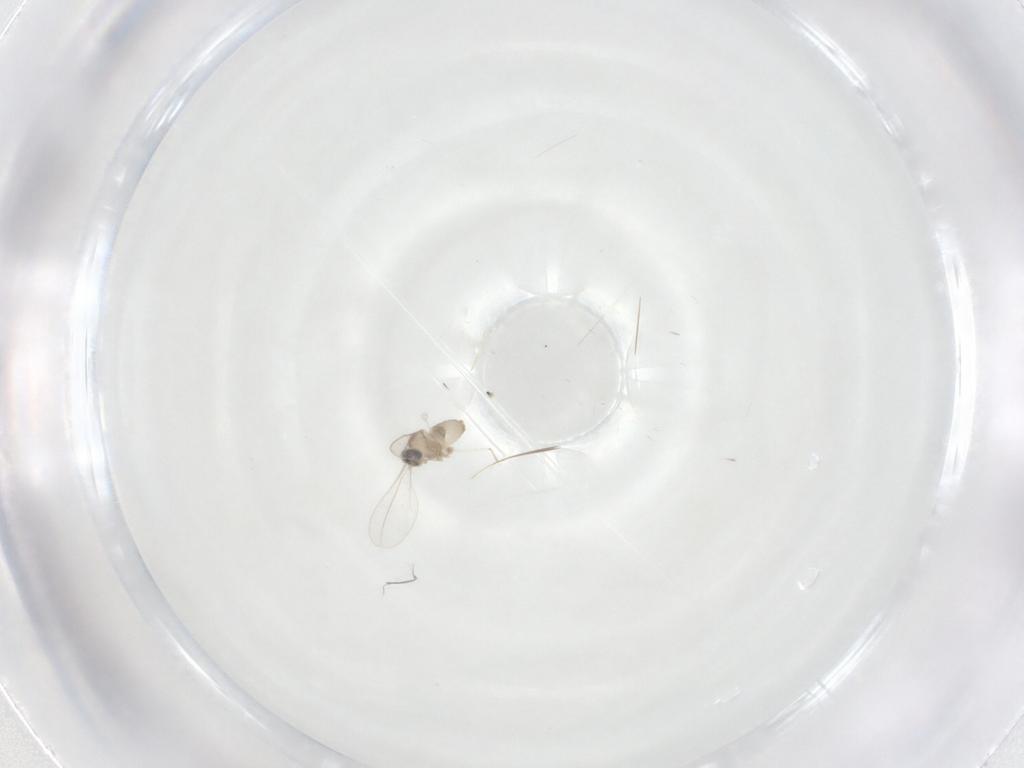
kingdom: Animalia
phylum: Arthropoda
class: Insecta
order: Diptera
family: Cecidomyiidae
